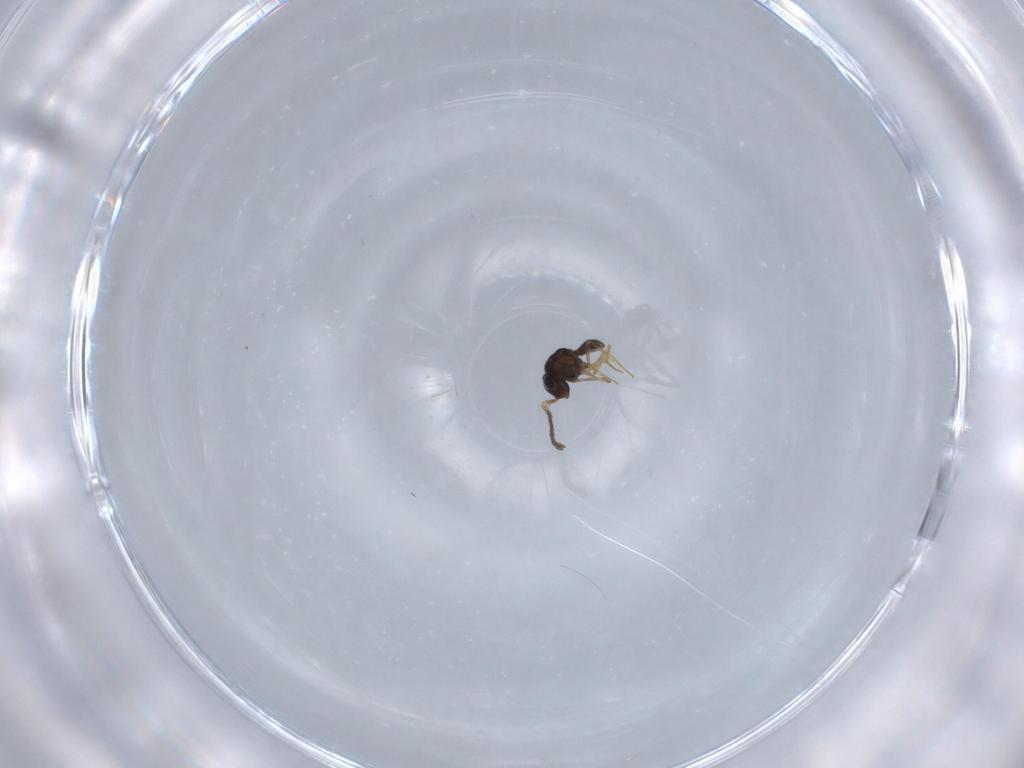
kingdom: Animalia
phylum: Arthropoda
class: Insecta
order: Hymenoptera
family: Scelionidae
